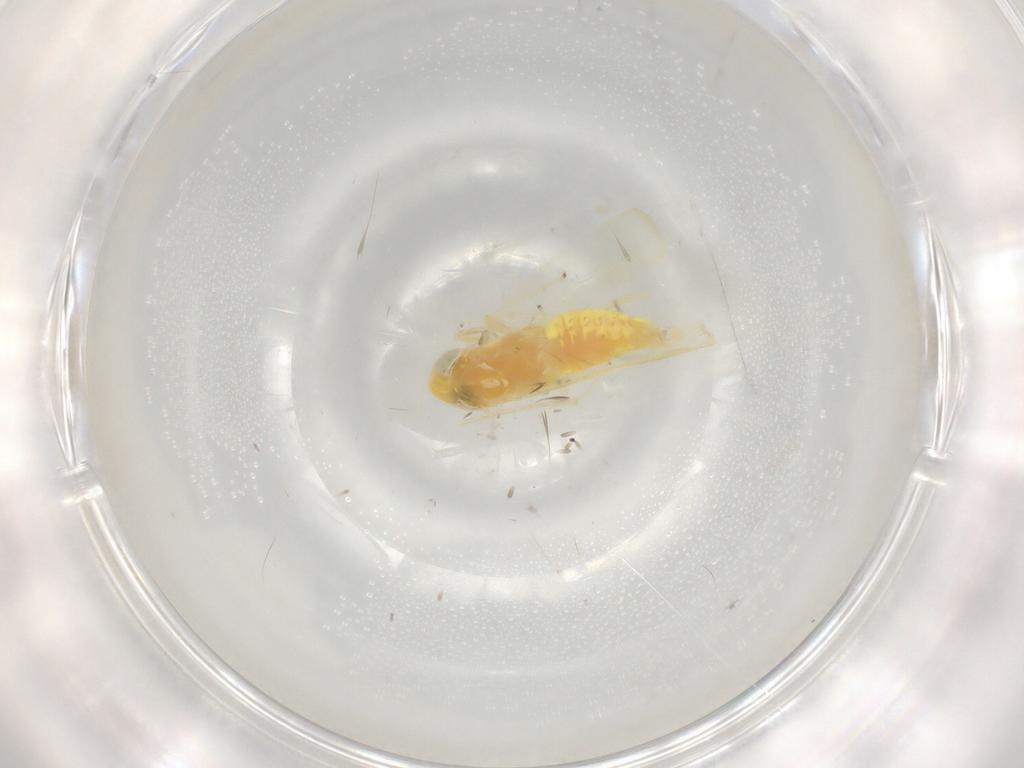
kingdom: Animalia
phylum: Arthropoda
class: Insecta
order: Hemiptera
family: Cicadellidae
